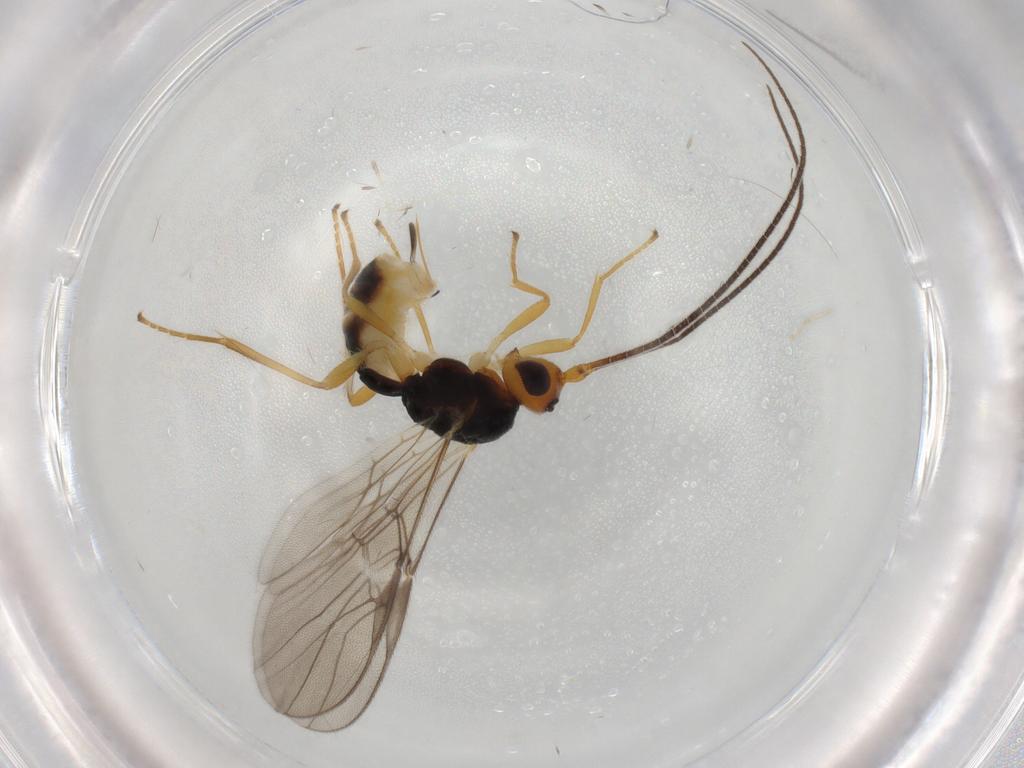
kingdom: Animalia
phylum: Arthropoda
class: Insecta
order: Hymenoptera
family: Braconidae
